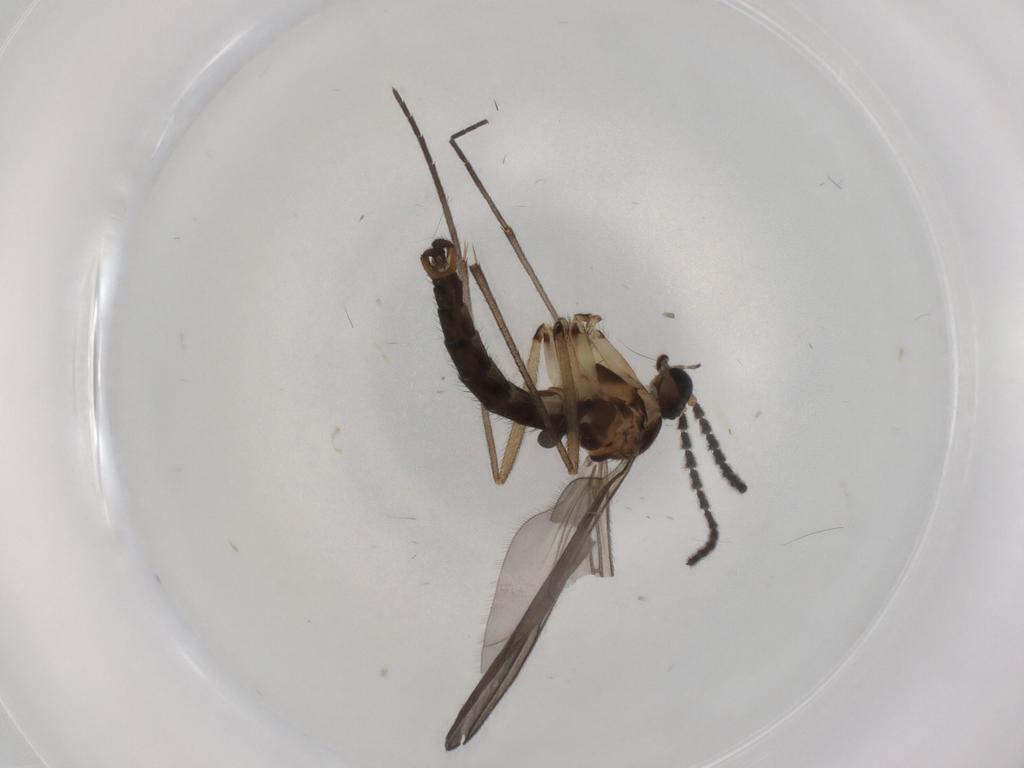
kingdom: Animalia
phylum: Arthropoda
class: Insecta
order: Diptera
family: Sciaridae
